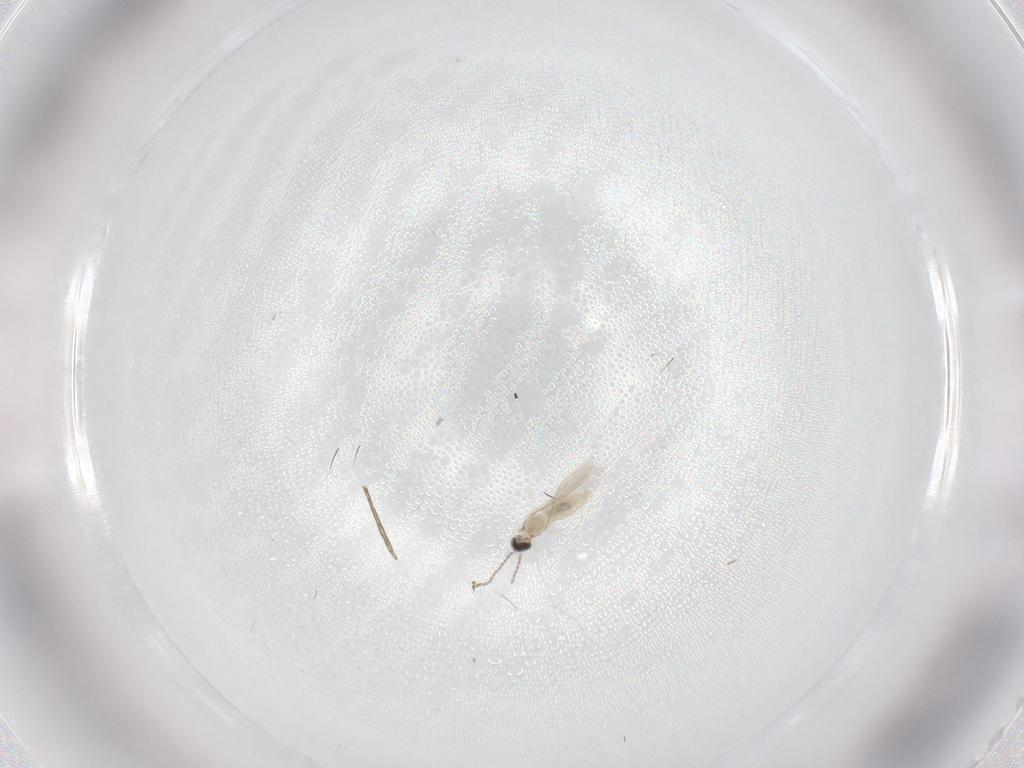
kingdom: Animalia
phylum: Arthropoda
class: Insecta
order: Diptera
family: Cecidomyiidae
